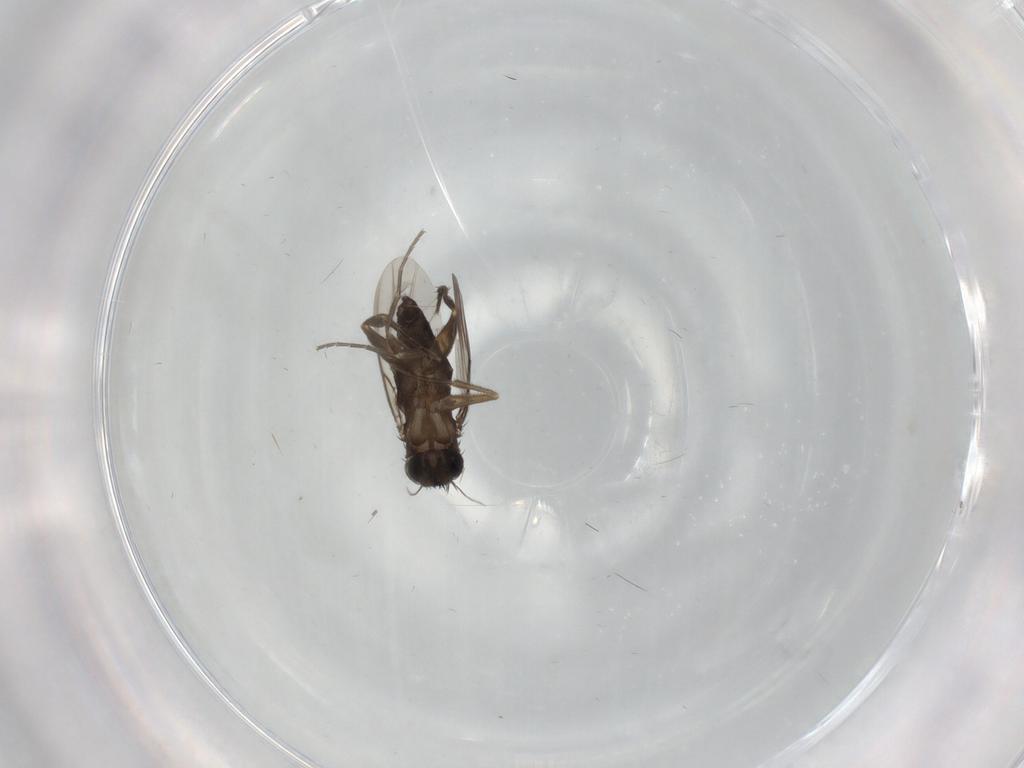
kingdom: Animalia
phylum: Arthropoda
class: Insecta
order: Diptera
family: Phoridae
